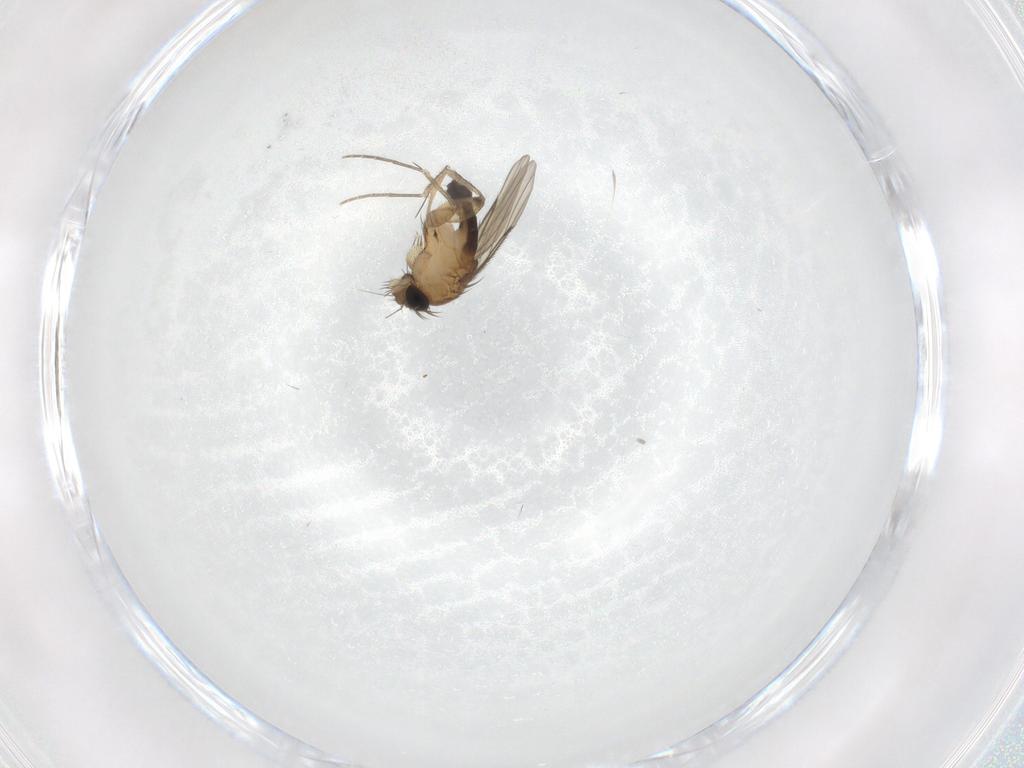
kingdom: Animalia
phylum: Arthropoda
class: Insecta
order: Diptera
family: Phoridae
